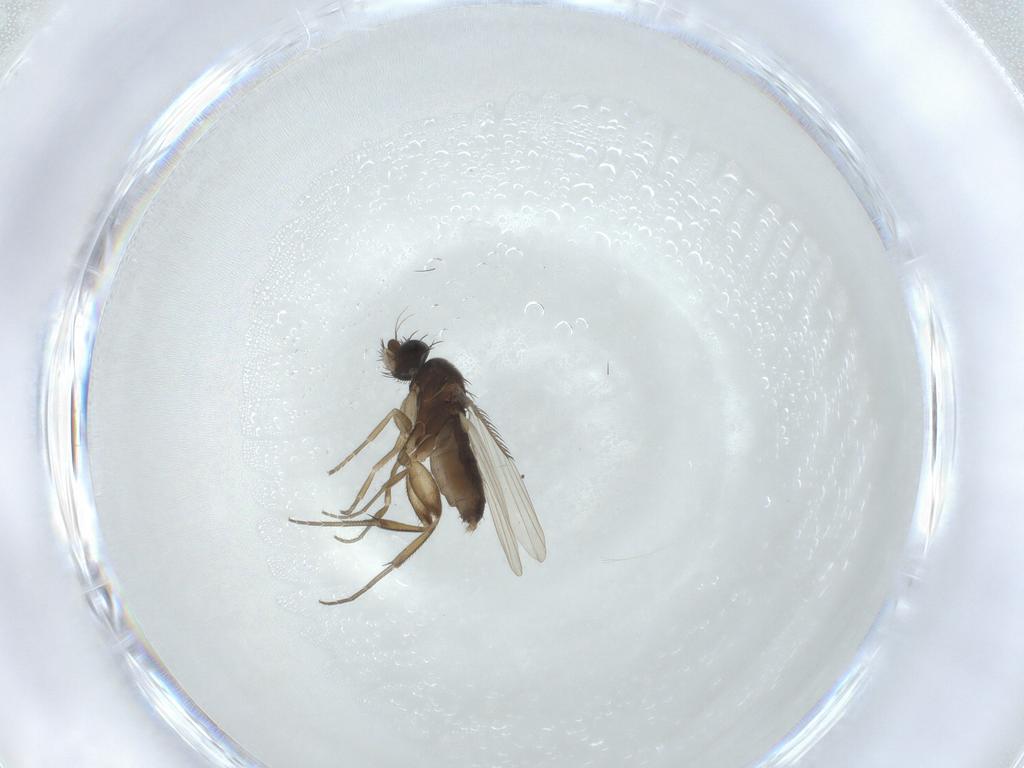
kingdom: Animalia
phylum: Arthropoda
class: Insecta
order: Diptera
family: Phoridae
